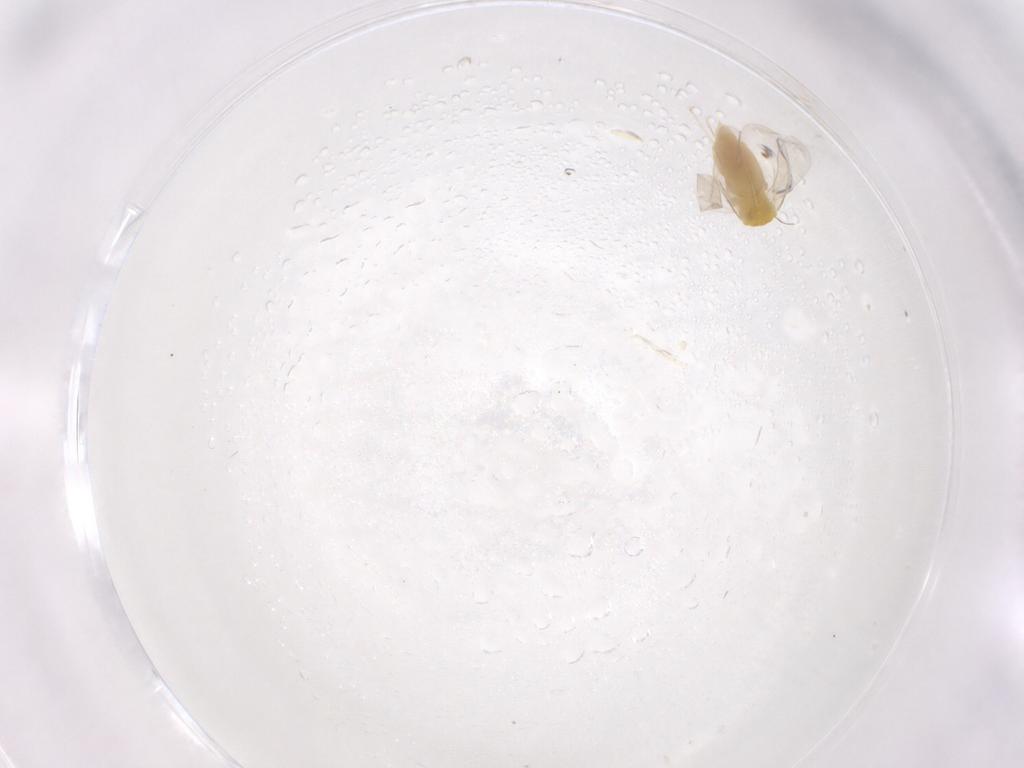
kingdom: Animalia
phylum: Arthropoda
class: Insecta
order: Hemiptera
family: Aleyrodidae
